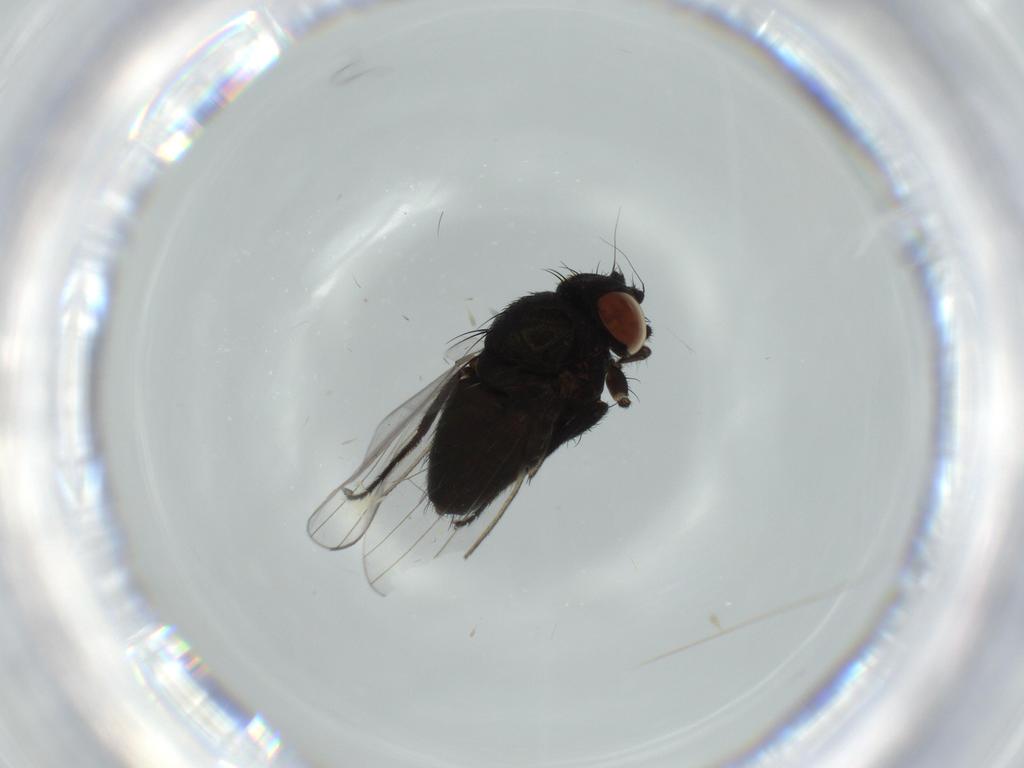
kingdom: Animalia
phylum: Arthropoda
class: Insecta
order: Diptera
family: Milichiidae
